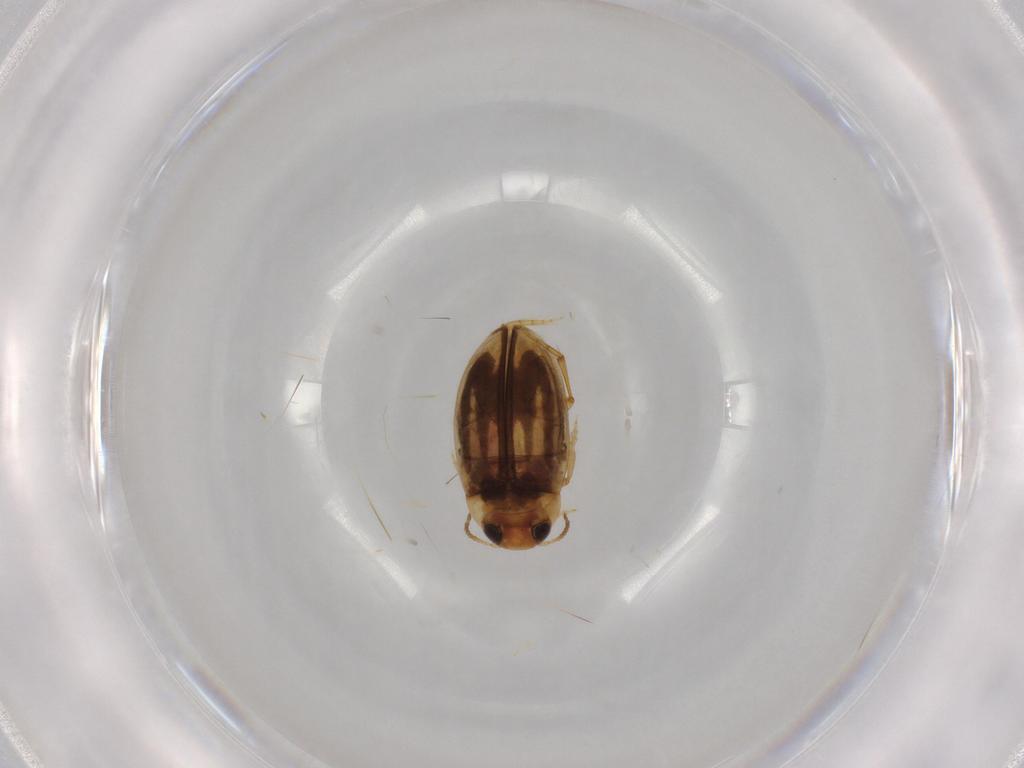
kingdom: Animalia
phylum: Arthropoda
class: Insecta
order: Coleoptera
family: Dytiscidae
